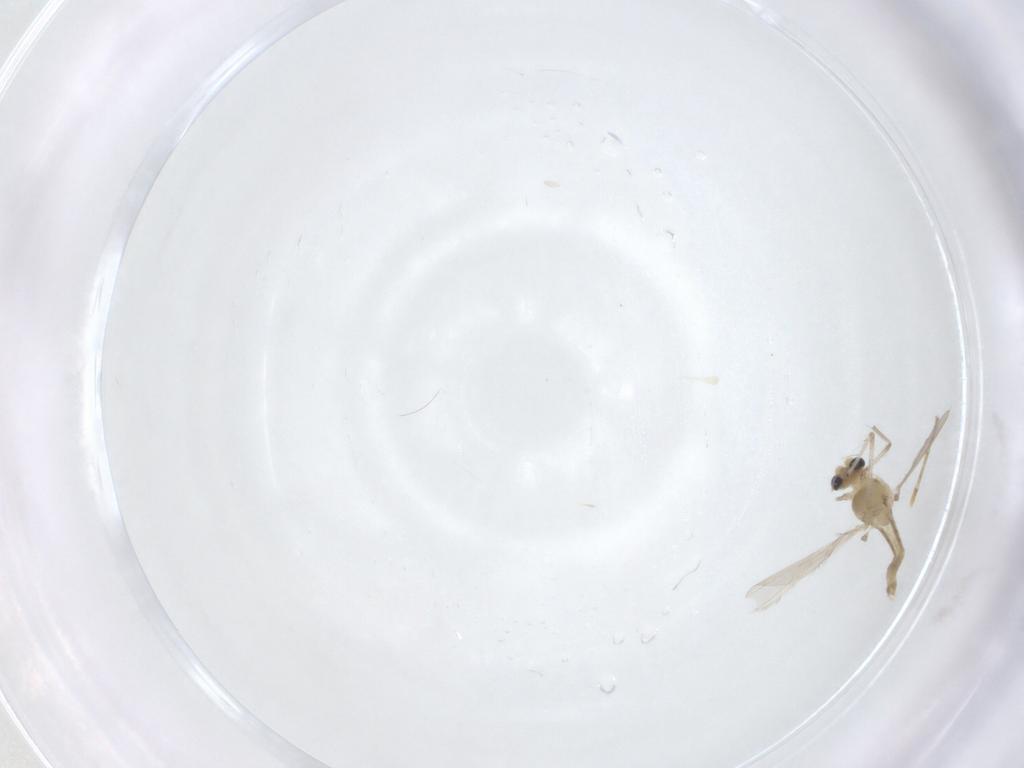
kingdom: Animalia
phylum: Arthropoda
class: Insecta
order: Diptera
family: Chironomidae
